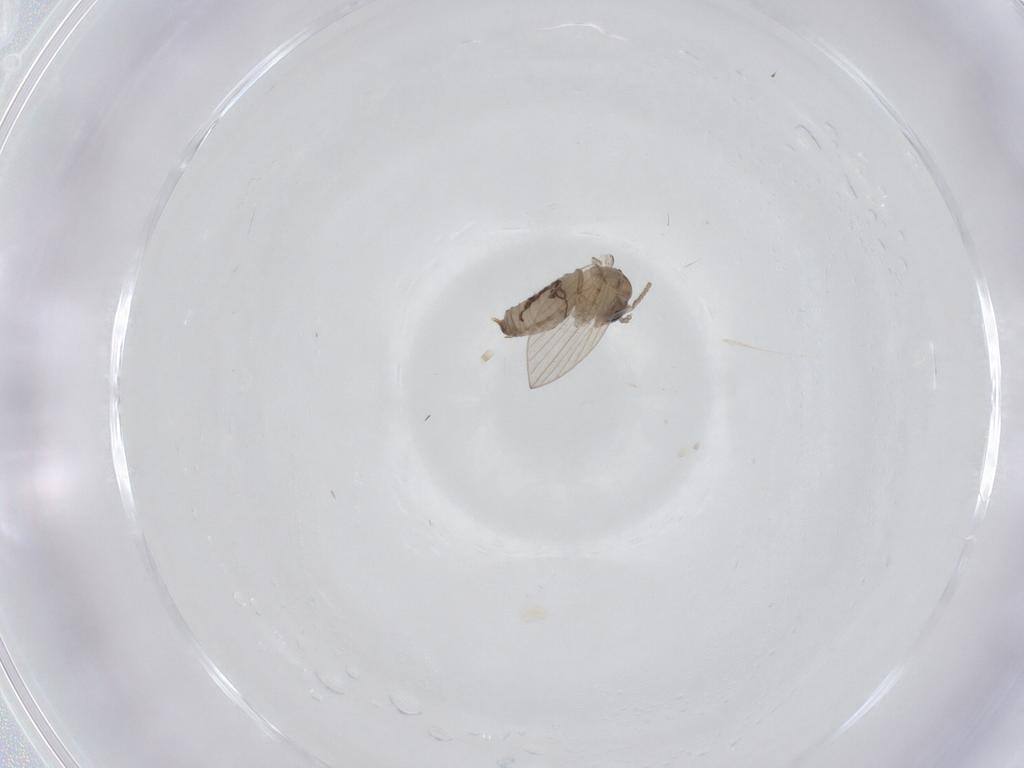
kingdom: Animalia
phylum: Arthropoda
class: Insecta
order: Diptera
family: Psychodidae
